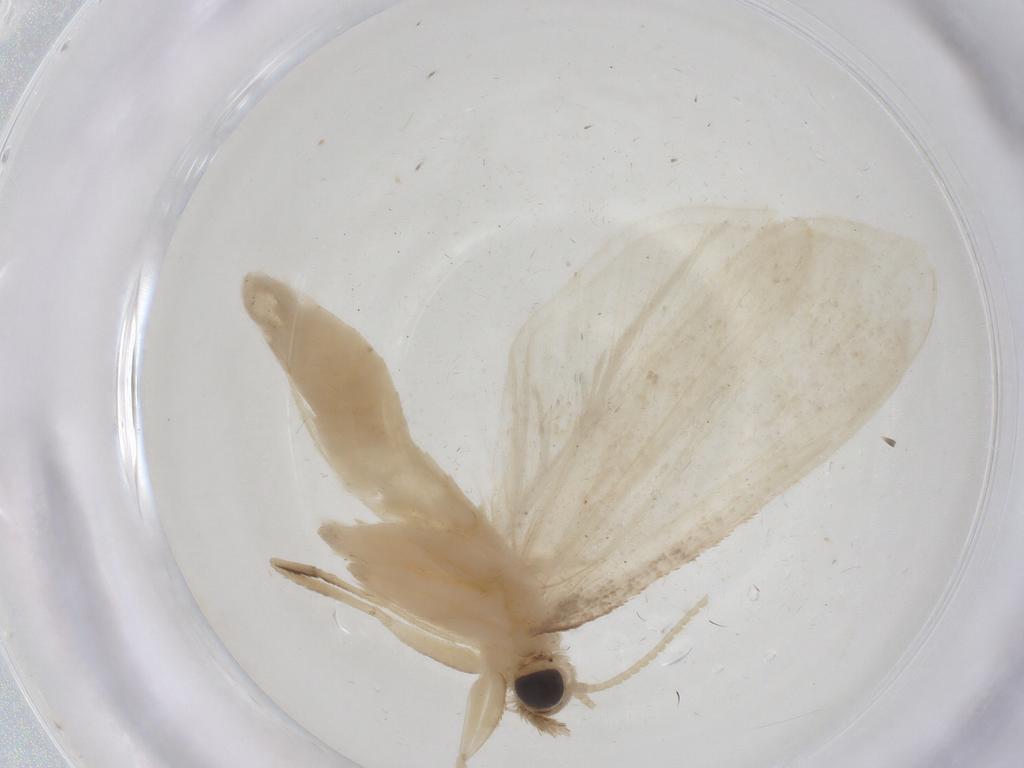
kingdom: Animalia
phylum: Arthropoda
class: Insecta
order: Lepidoptera
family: Crambidae
